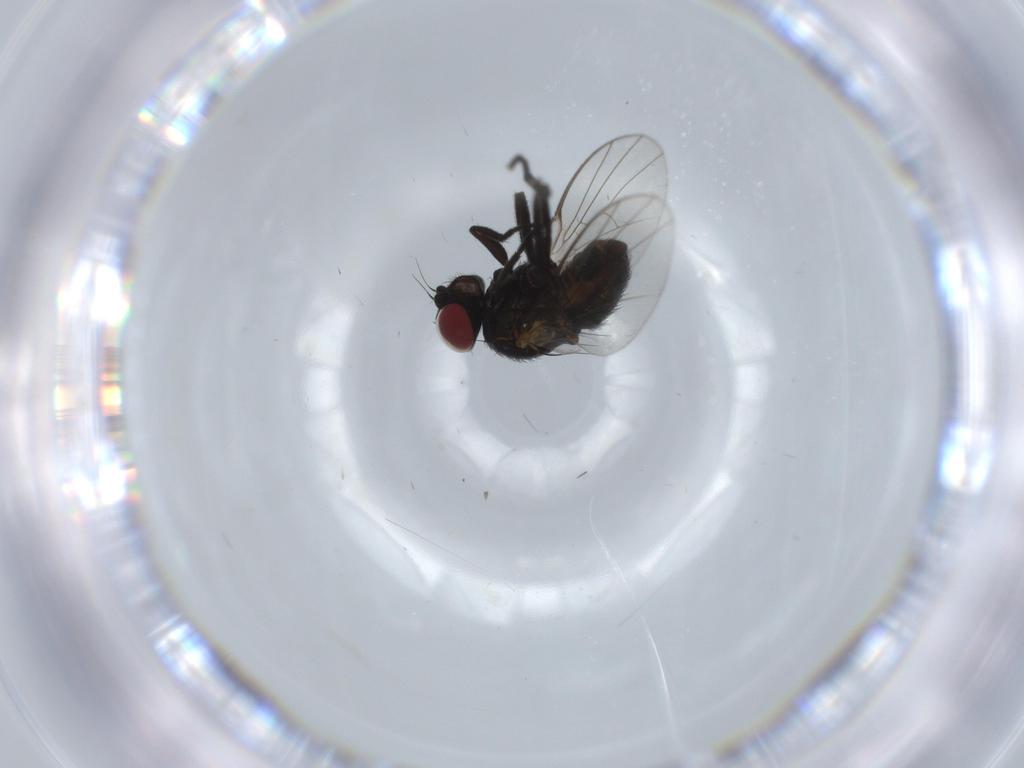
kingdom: Animalia
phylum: Arthropoda
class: Insecta
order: Diptera
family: Agromyzidae
